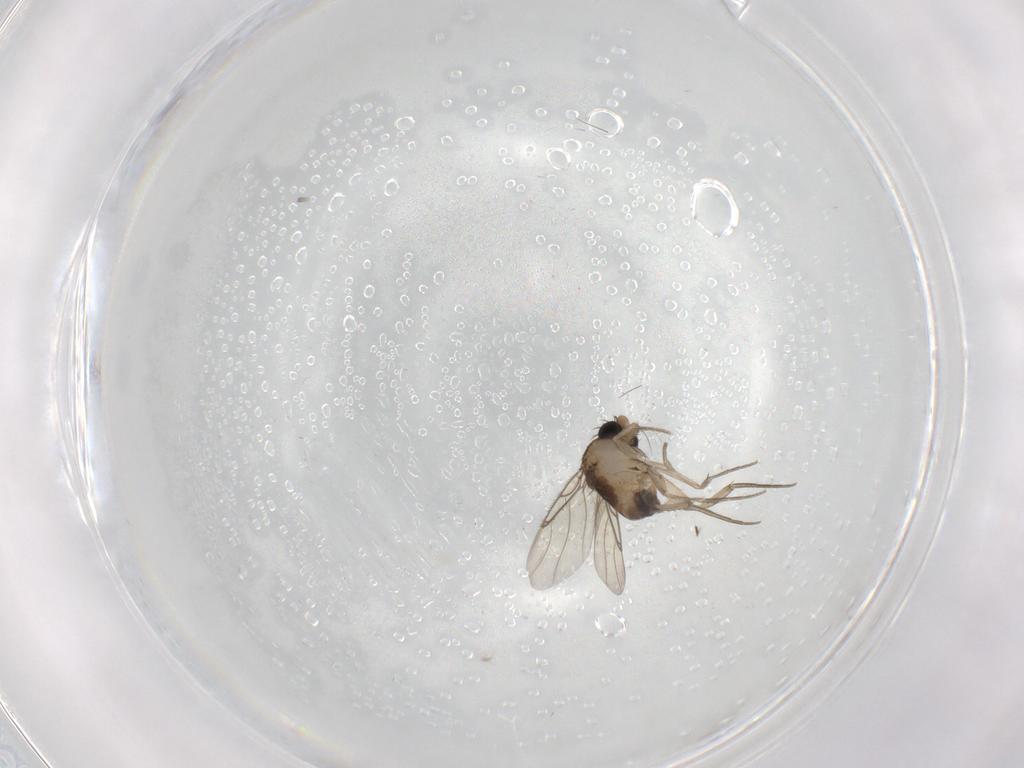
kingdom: Animalia
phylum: Arthropoda
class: Insecta
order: Diptera
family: Phoridae
